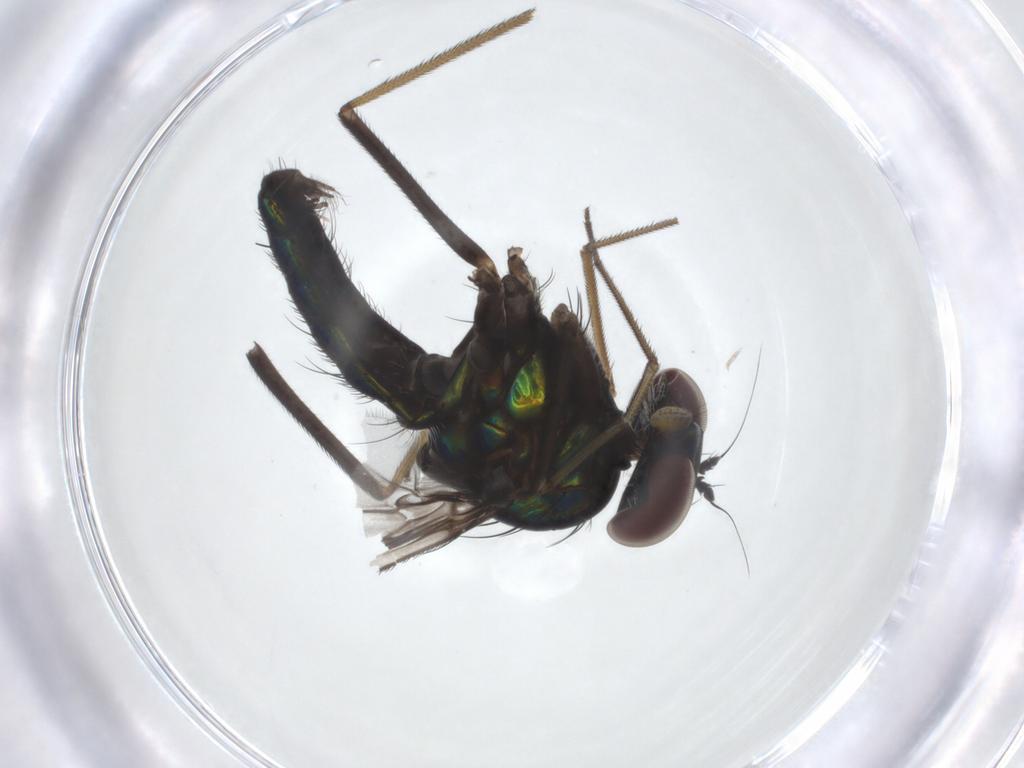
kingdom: Animalia
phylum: Arthropoda
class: Insecta
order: Diptera
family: Dolichopodidae
